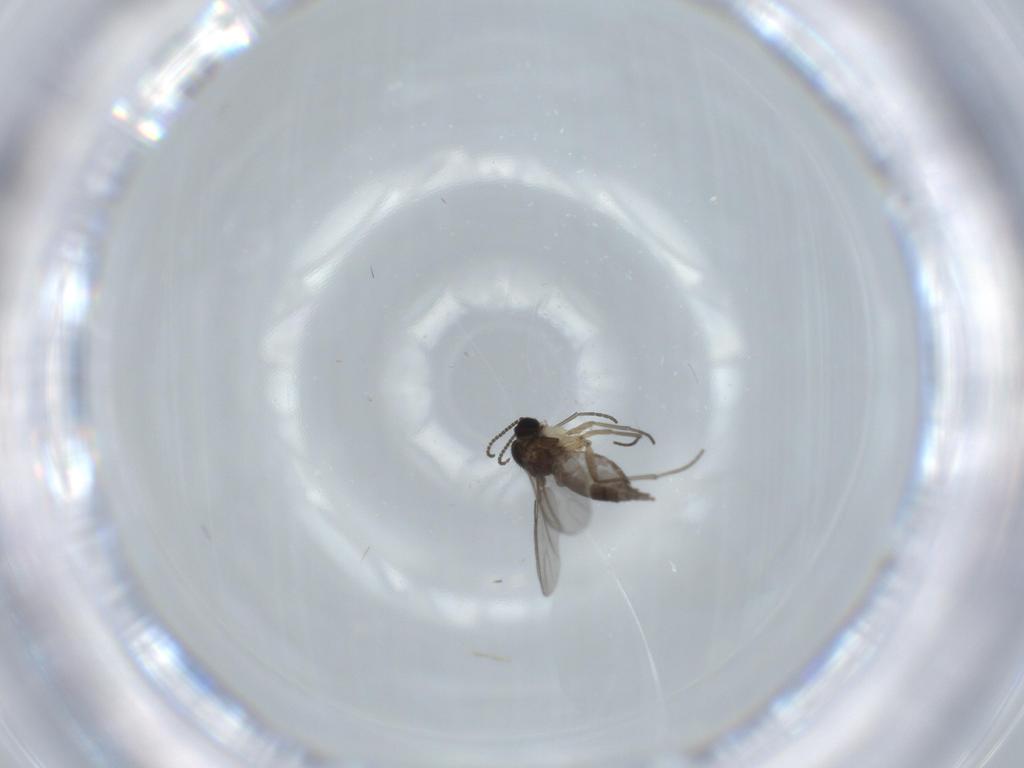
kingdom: Animalia
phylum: Arthropoda
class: Insecta
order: Diptera
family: Sciaridae
